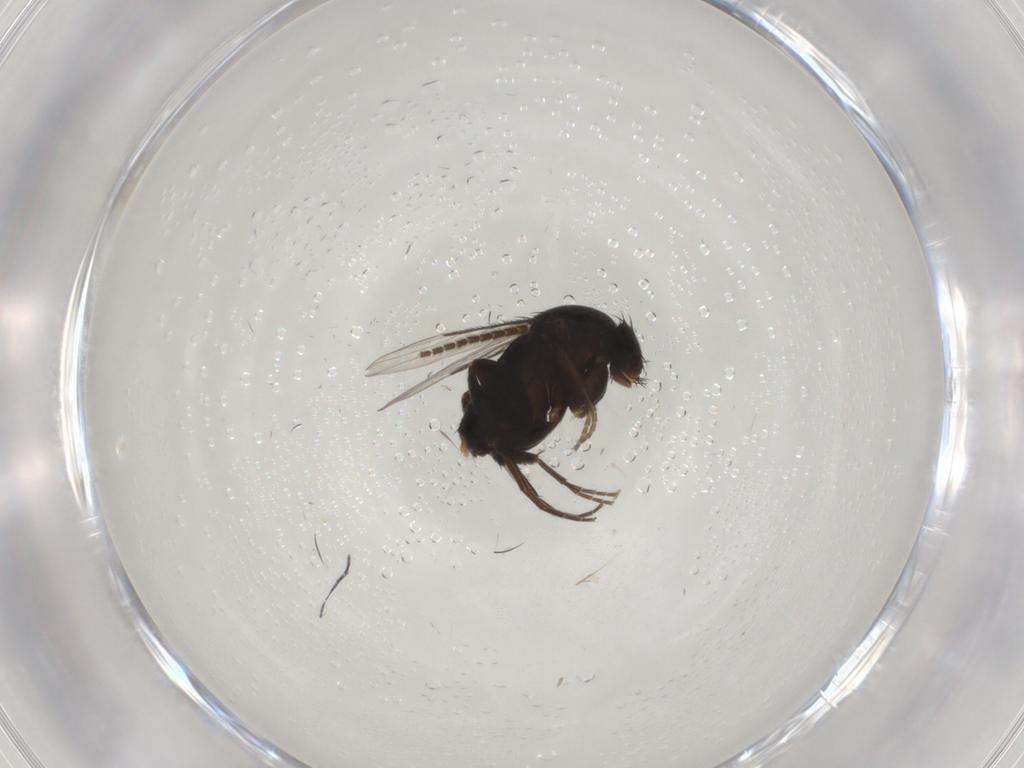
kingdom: Animalia
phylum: Arthropoda
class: Insecta
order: Diptera
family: Phoridae
